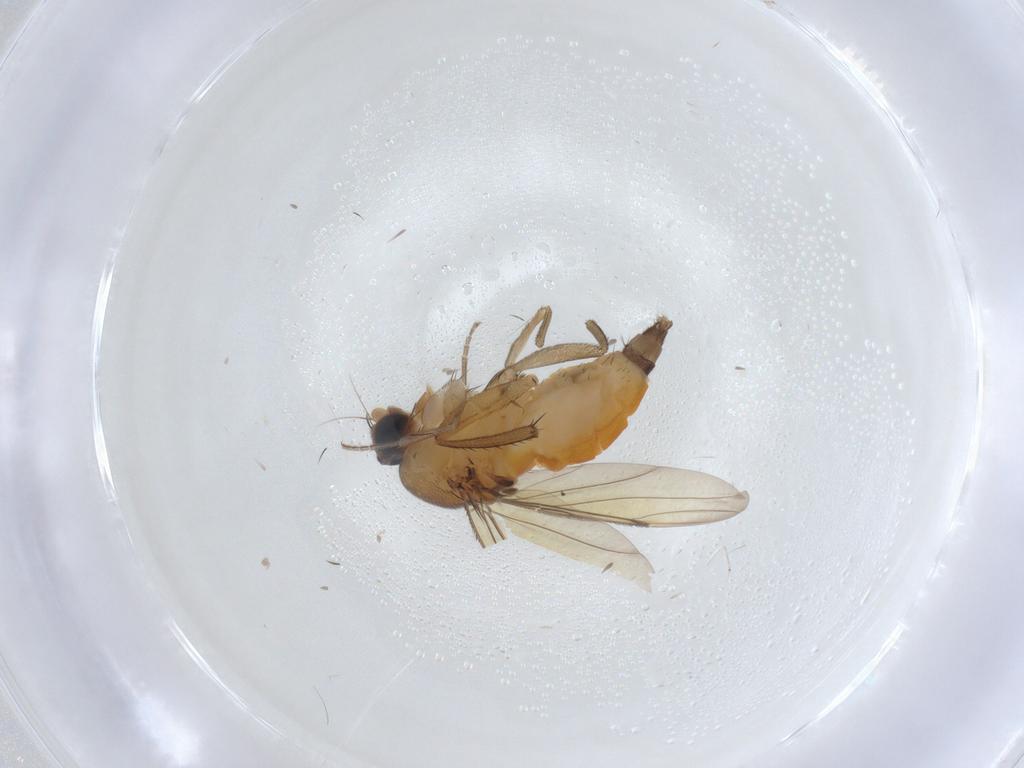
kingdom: Animalia
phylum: Arthropoda
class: Insecta
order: Diptera
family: Phoridae
